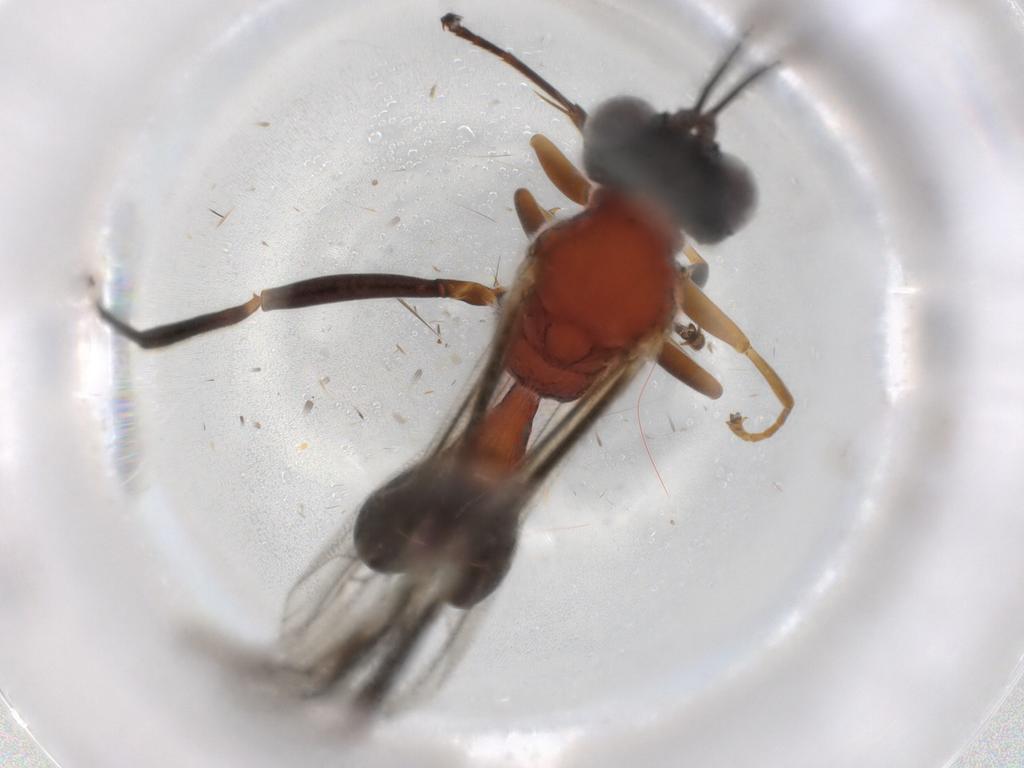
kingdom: Animalia
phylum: Arthropoda
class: Insecta
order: Hymenoptera
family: Ichneumonidae
